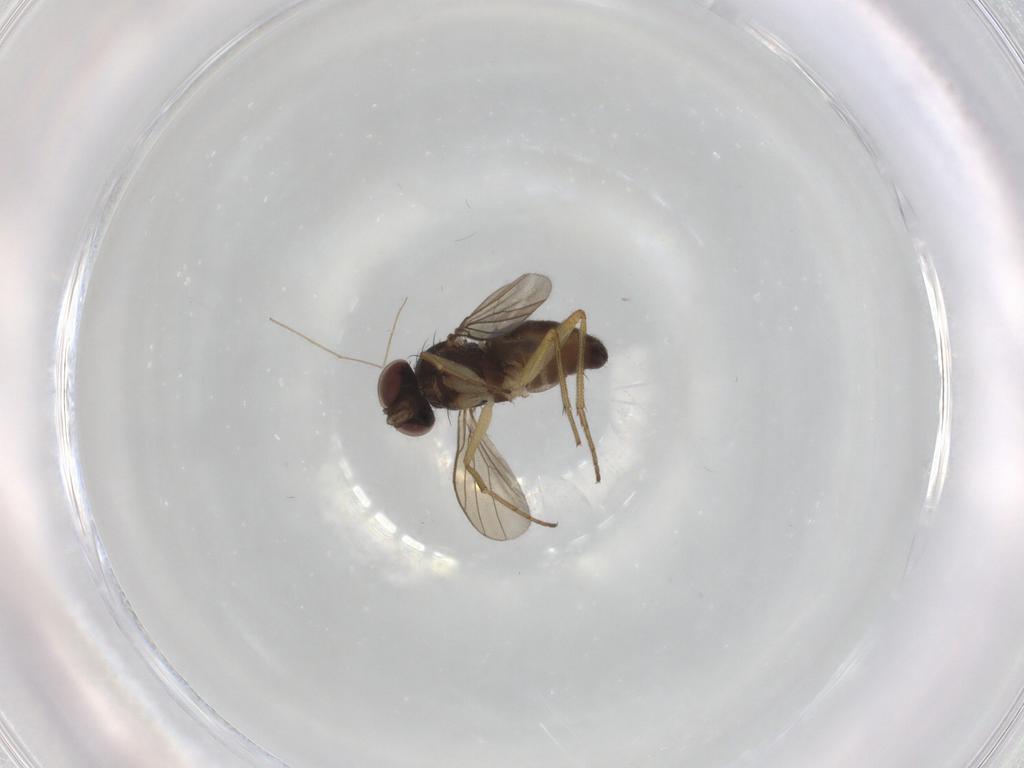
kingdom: Animalia
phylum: Arthropoda
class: Insecta
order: Diptera
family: Dolichopodidae
